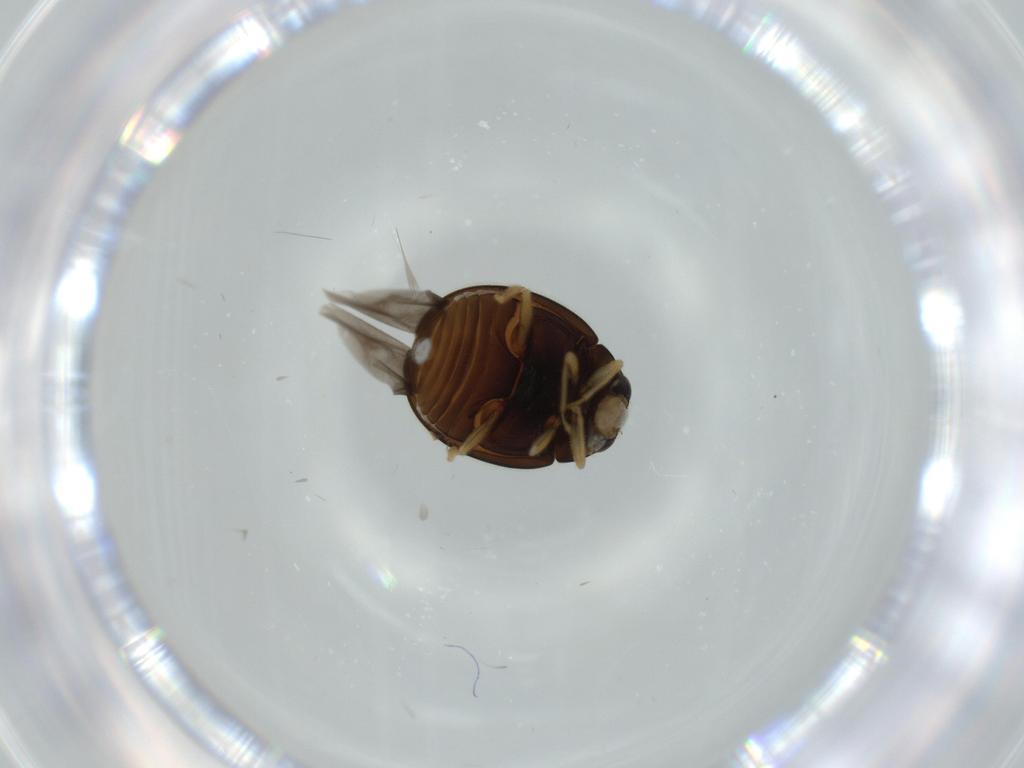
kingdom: Animalia
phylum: Arthropoda
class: Insecta
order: Coleoptera
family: Coccinellidae
